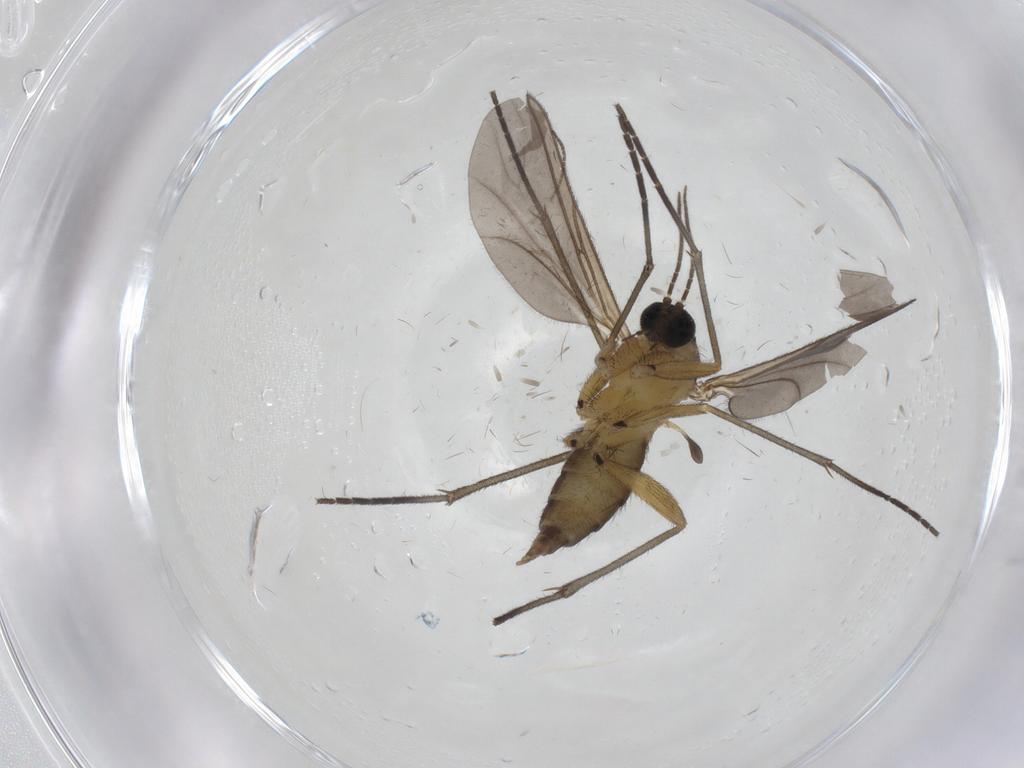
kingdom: Animalia
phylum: Arthropoda
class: Insecta
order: Diptera
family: Sciaridae
